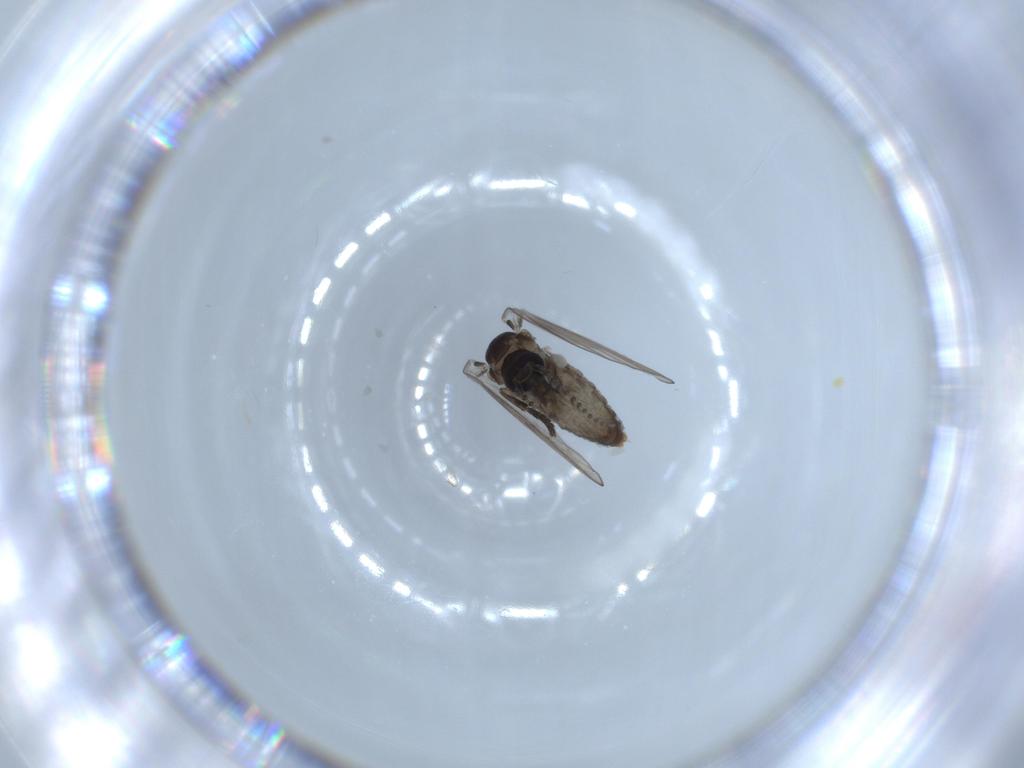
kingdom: Animalia
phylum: Arthropoda
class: Insecta
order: Diptera
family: Psychodidae
